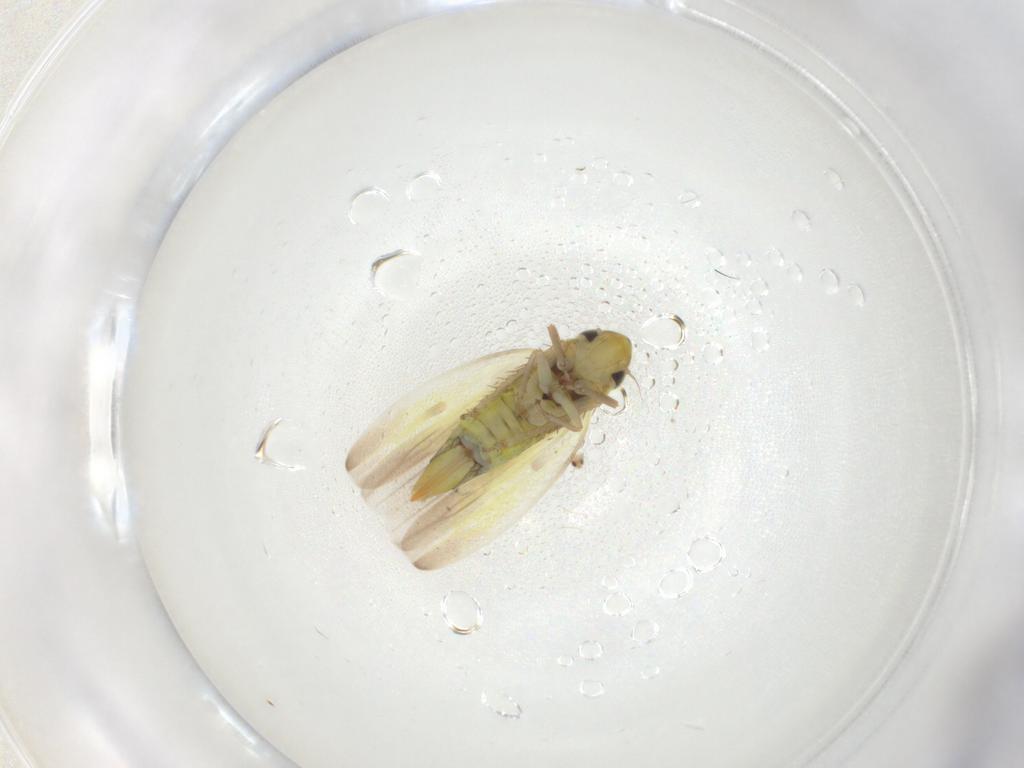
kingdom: Animalia
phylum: Arthropoda
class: Insecta
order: Hemiptera
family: Cicadellidae
